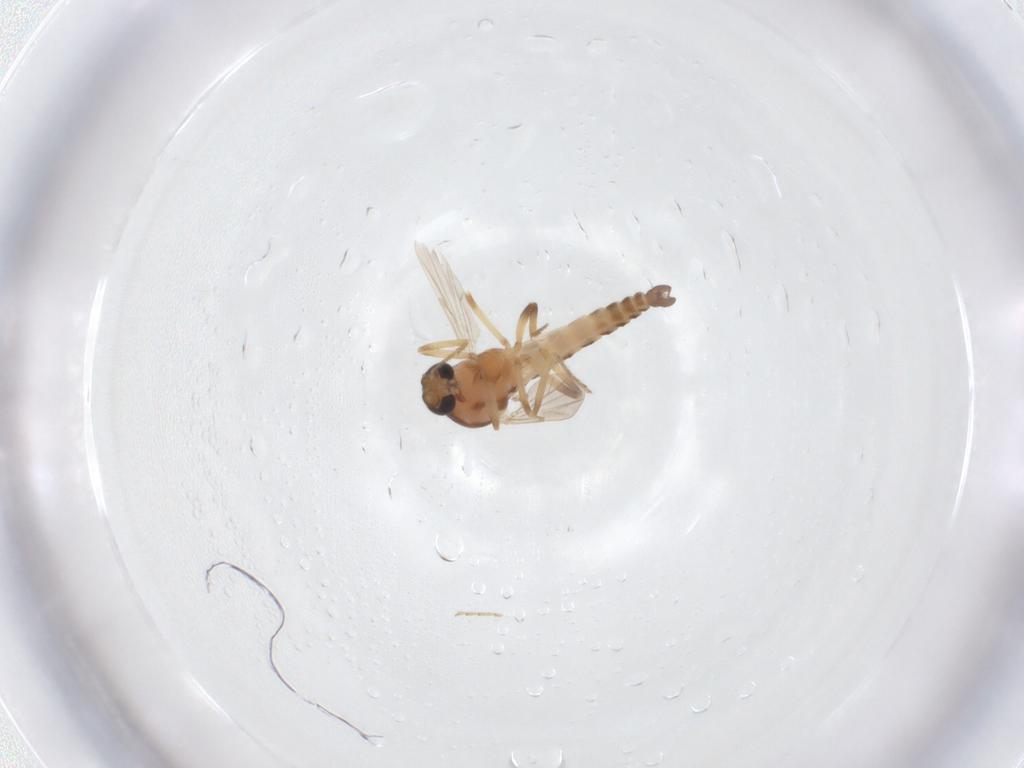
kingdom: Animalia
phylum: Arthropoda
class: Insecta
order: Diptera
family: Ceratopogonidae
